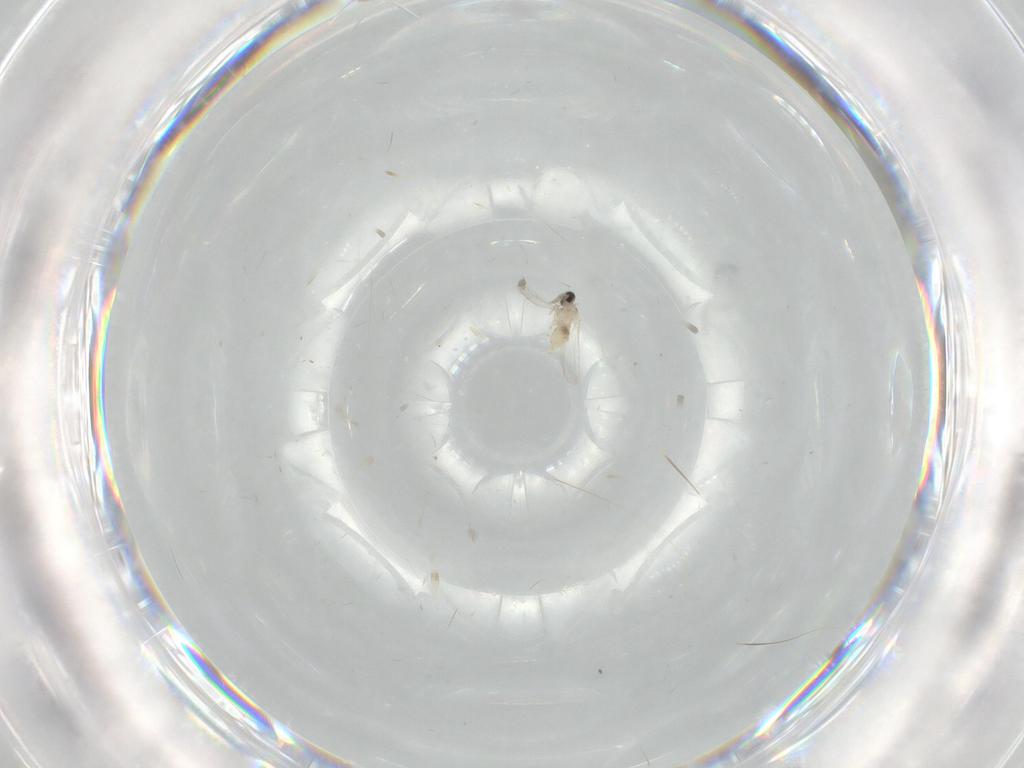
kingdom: Animalia
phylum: Arthropoda
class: Insecta
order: Diptera
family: Cecidomyiidae
